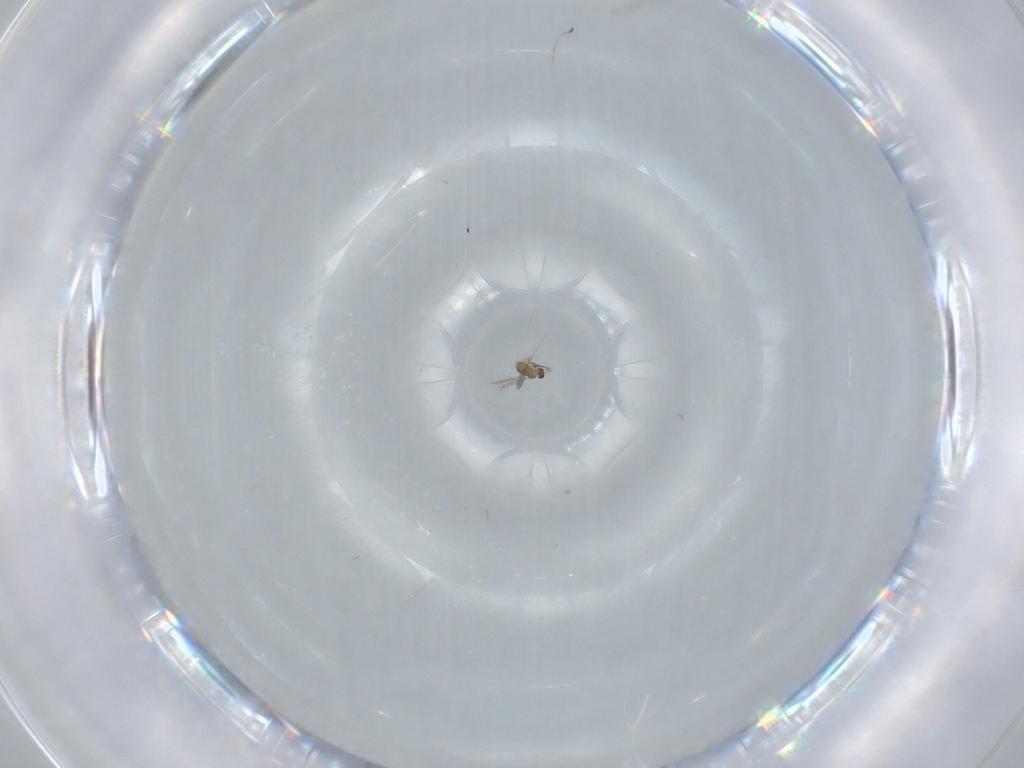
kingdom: Animalia
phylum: Arthropoda
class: Insecta
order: Hymenoptera
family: Mymaridae
